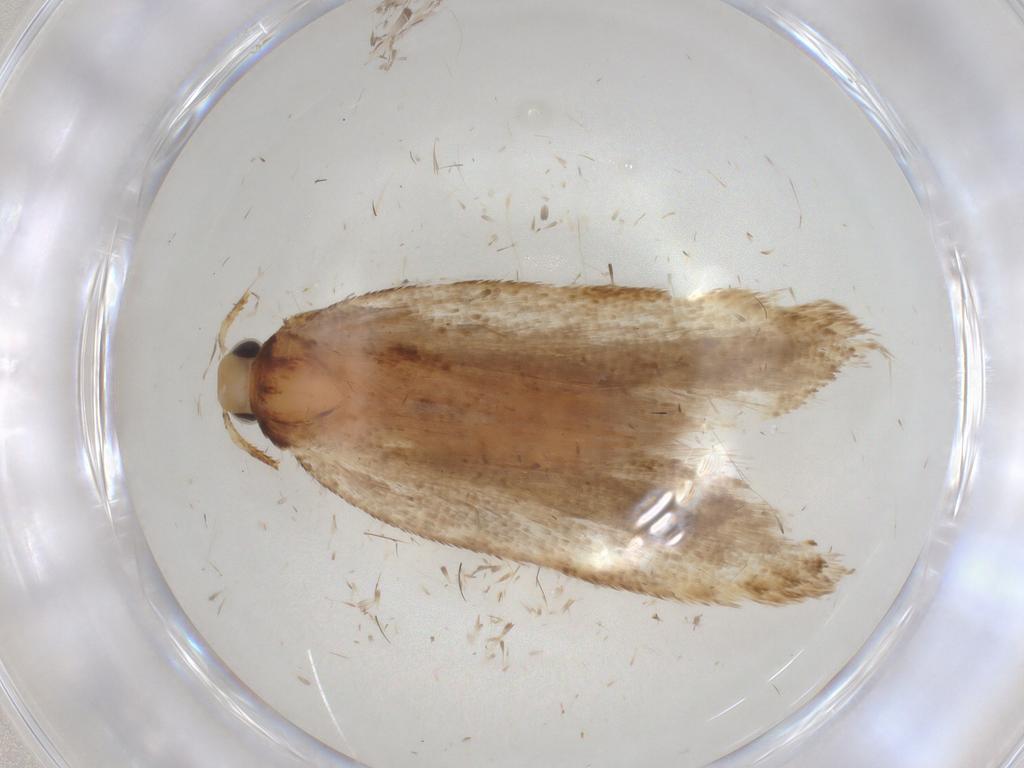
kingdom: Animalia
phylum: Arthropoda
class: Insecta
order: Lepidoptera
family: Gelechiidae
